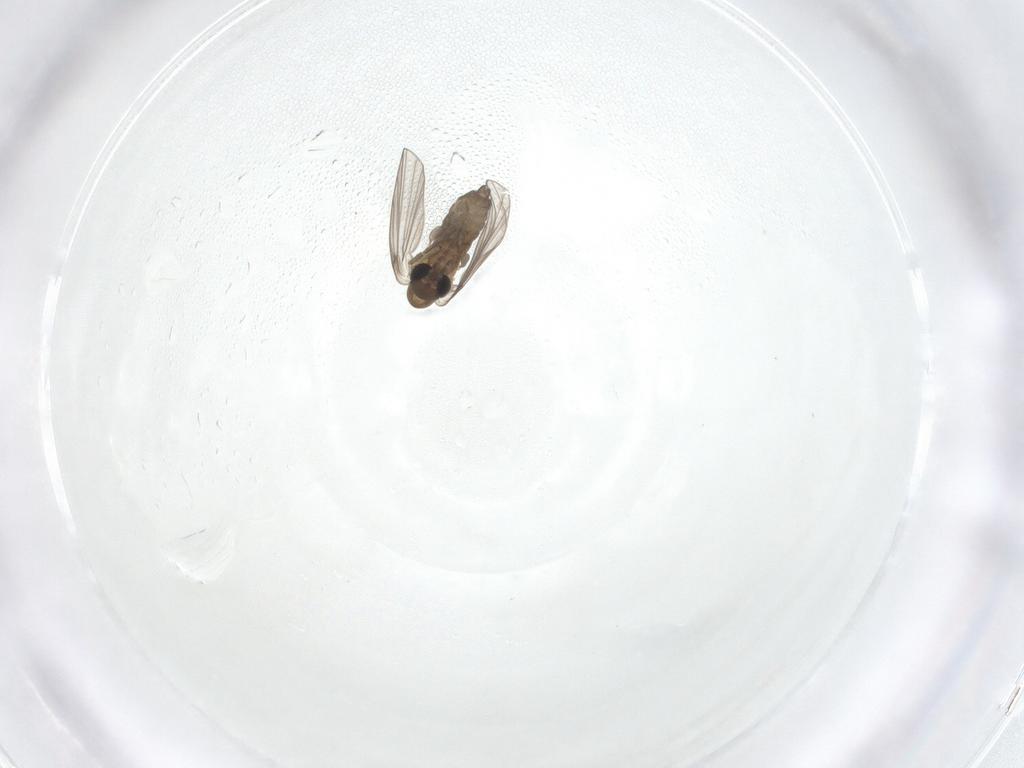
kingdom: Animalia
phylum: Arthropoda
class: Insecta
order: Diptera
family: Psychodidae
